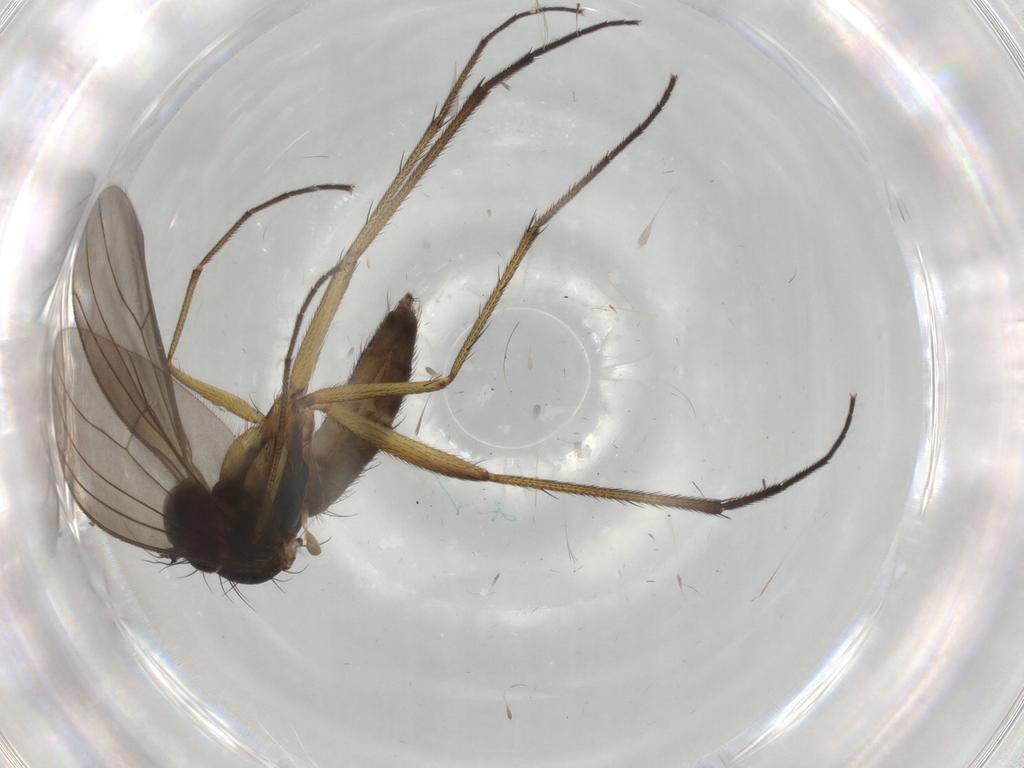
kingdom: Animalia
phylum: Arthropoda
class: Insecta
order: Diptera
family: Dolichopodidae
